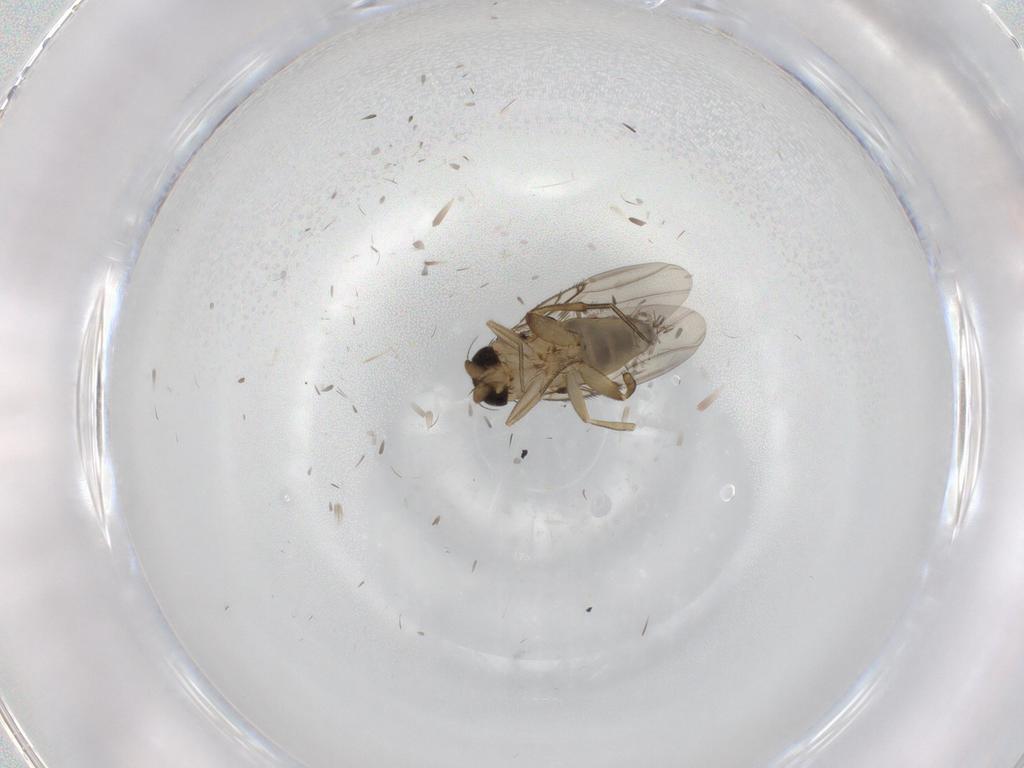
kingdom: Animalia
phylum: Arthropoda
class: Insecta
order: Diptera
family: Phoridae
